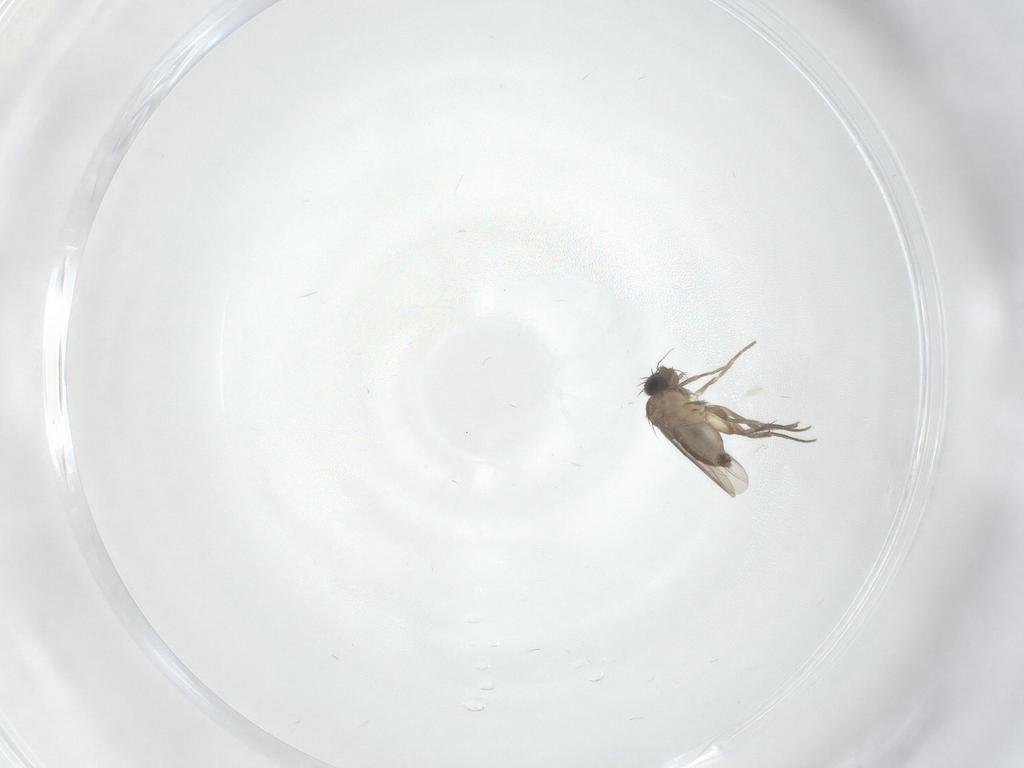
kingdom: Animalia
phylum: Arthropoda
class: Insecta
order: Diptera
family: Phoridae
